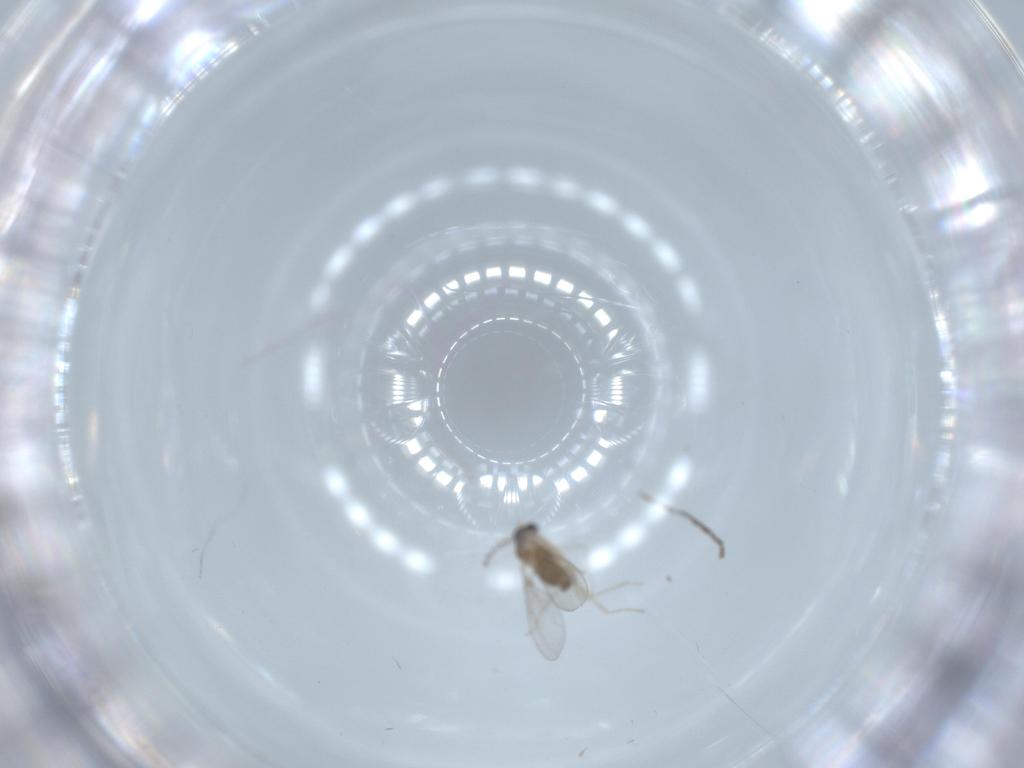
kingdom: Animalia
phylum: Arthropoda
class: Insecta
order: Diptera
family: Cecidomyiidae
